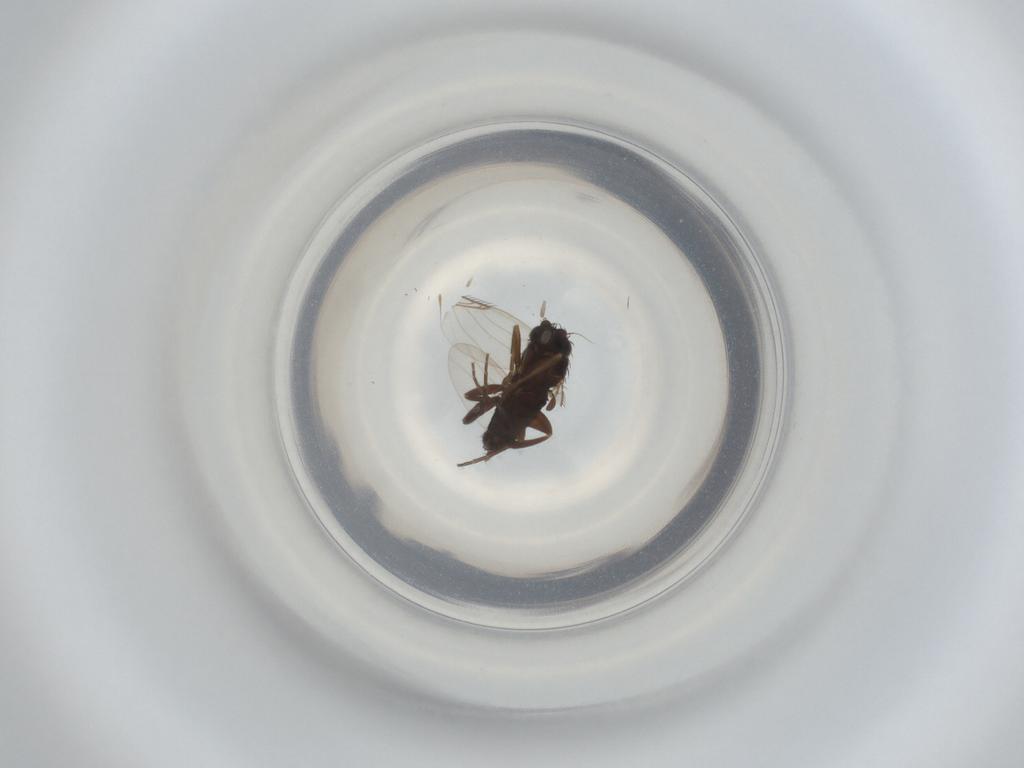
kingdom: Animalia
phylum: Arthropoda
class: Insecta
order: Diptera
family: Phoridae
